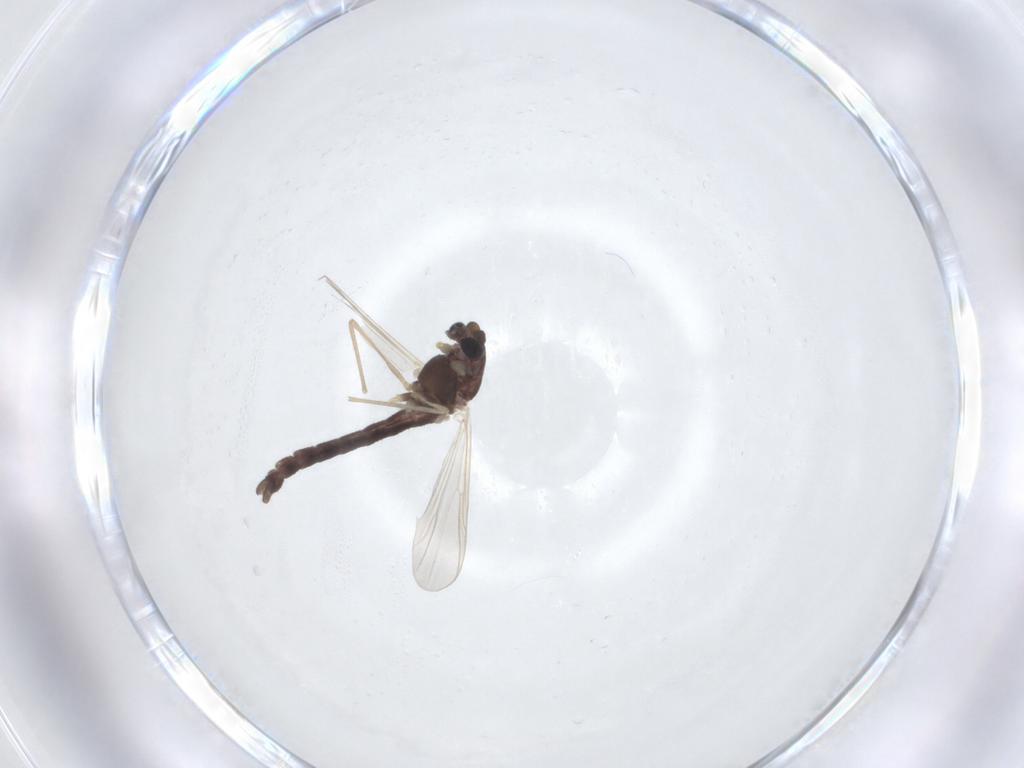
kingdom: Animalia
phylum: Arthropoda
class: Insecta
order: Diptera
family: Chironomidae
